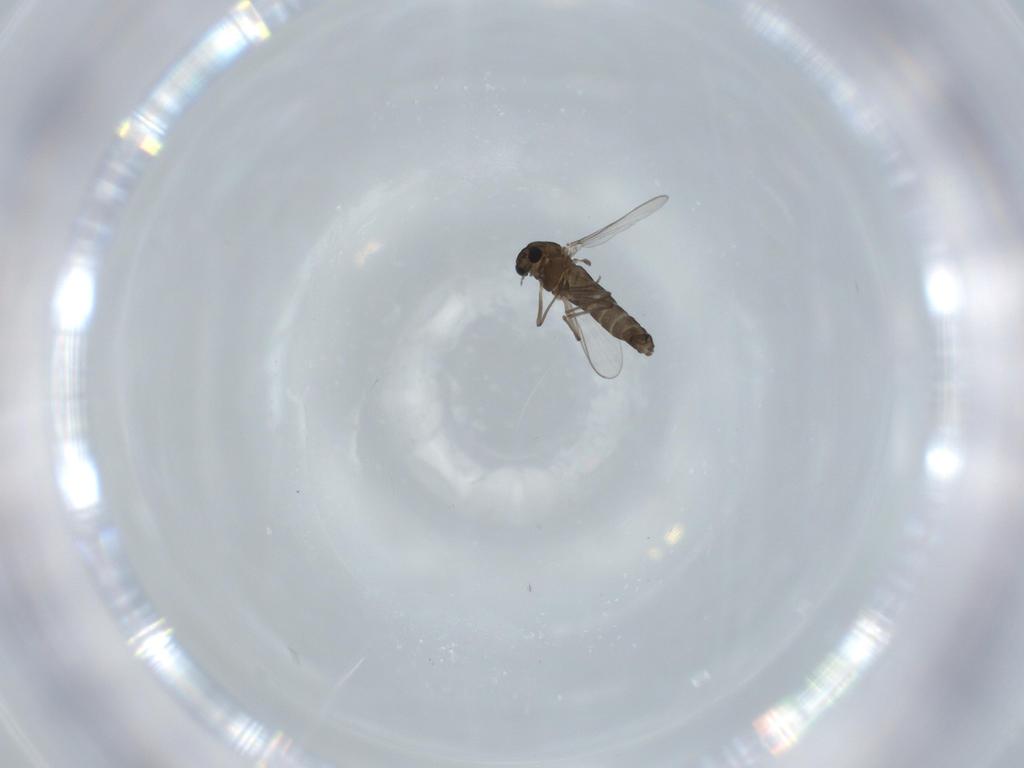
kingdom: Animalia
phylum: Arthropoda
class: Insecta
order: Diptera
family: Chironomidae
